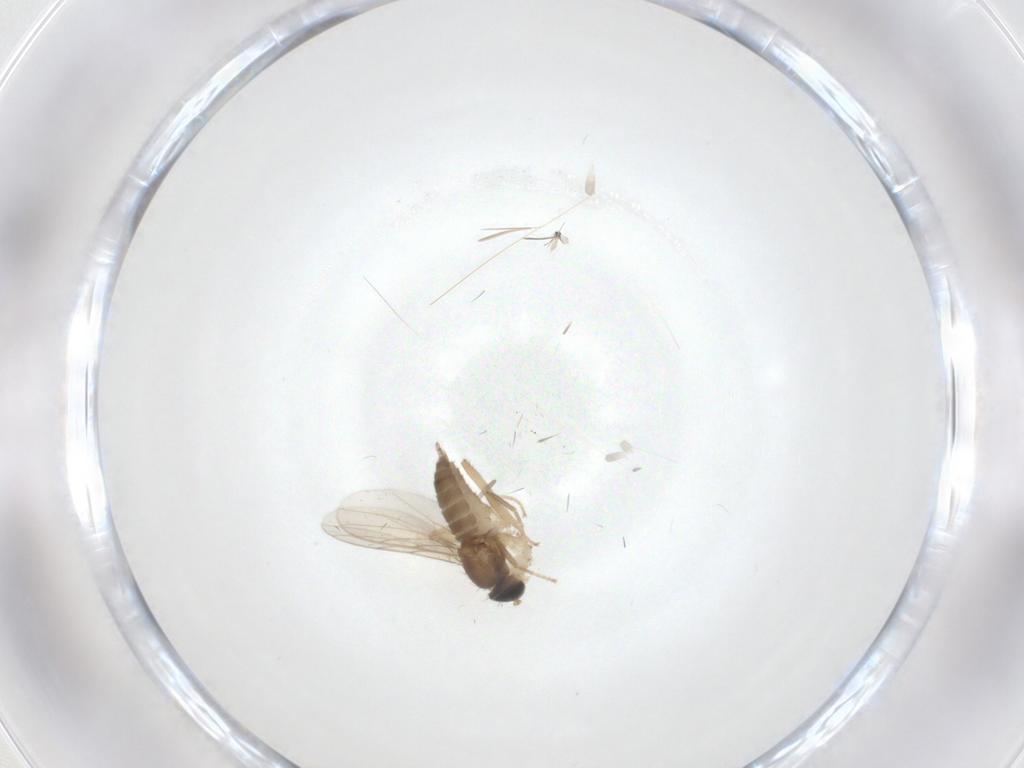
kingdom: Animalia
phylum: Arthropoda
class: Insecta
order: Diptera
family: Hybotidae
